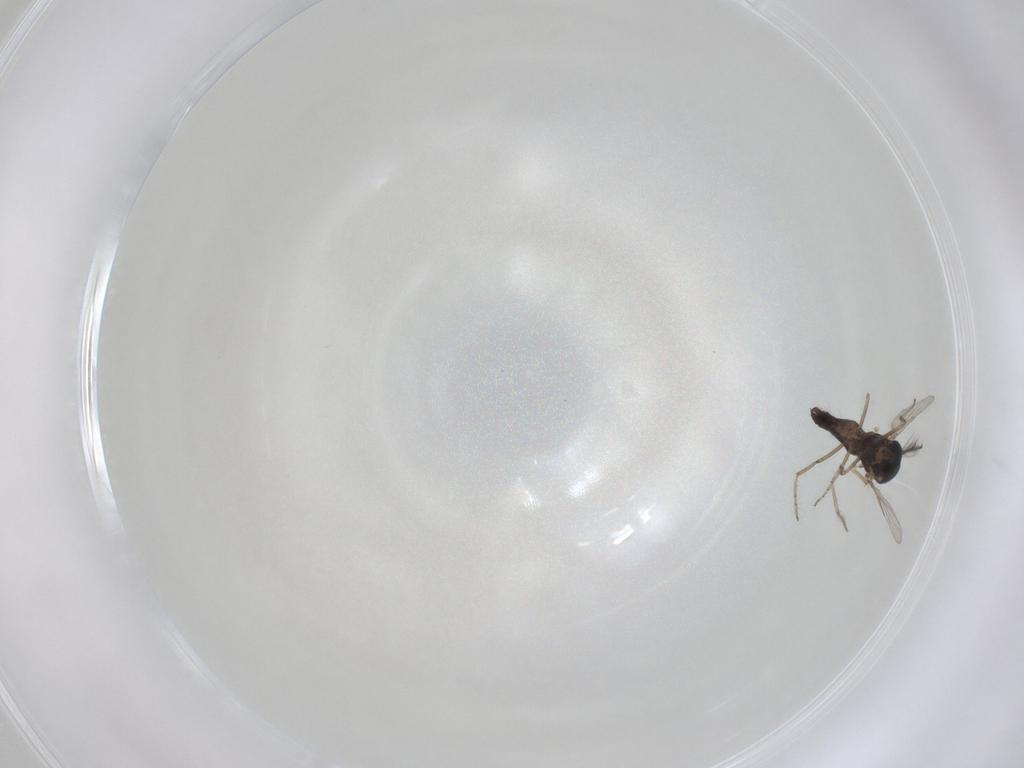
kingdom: Animalia
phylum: Arthropoda
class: Insecta
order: Diptera
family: Ceratopogonidae
